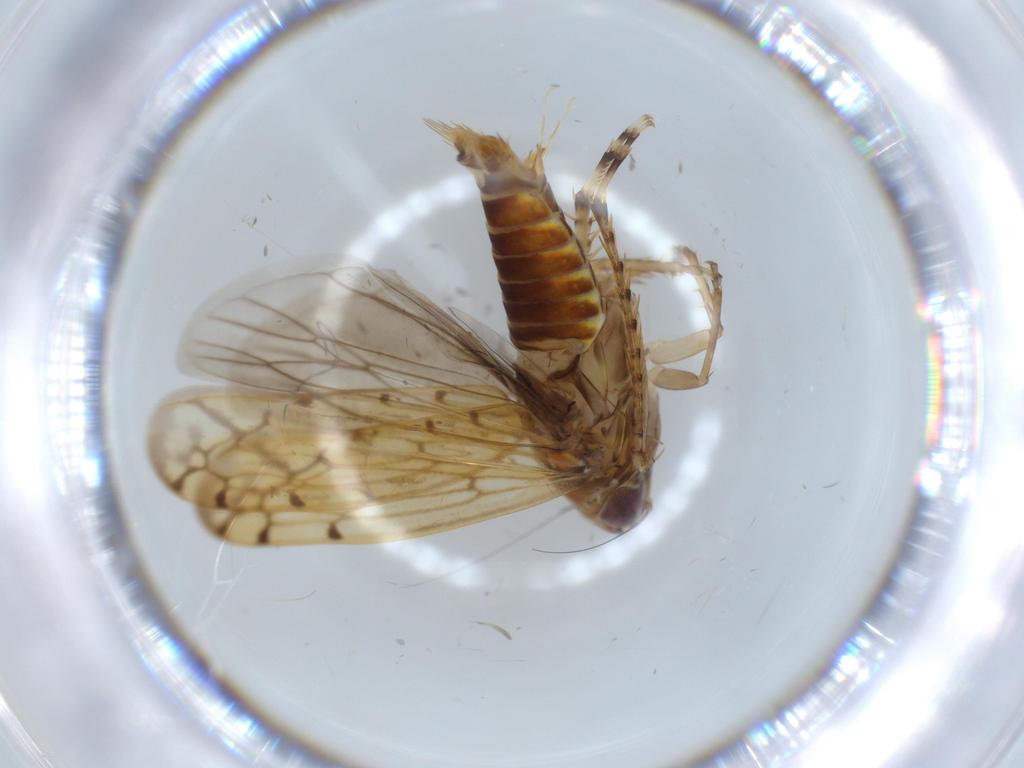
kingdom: Animalia
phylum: Arthropoda
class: Insecta
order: Hemiptera
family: Cicadellidae
